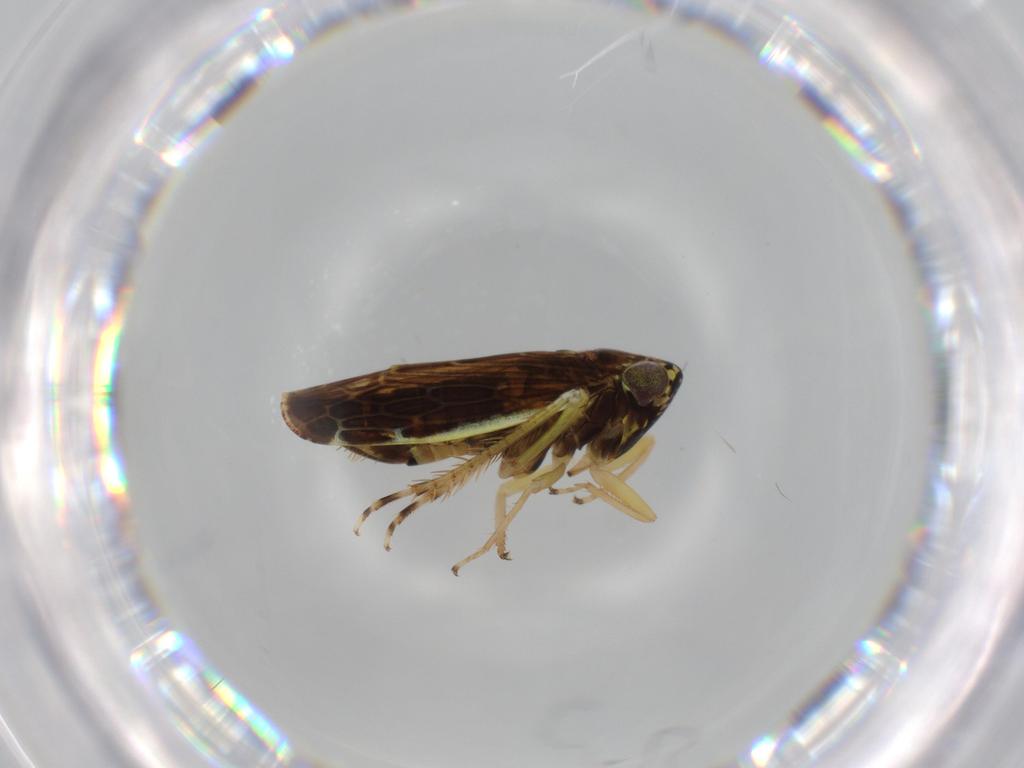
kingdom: Animalia
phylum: Arthropoda
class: Insecta
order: Hemiptera
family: Cicadellidae
